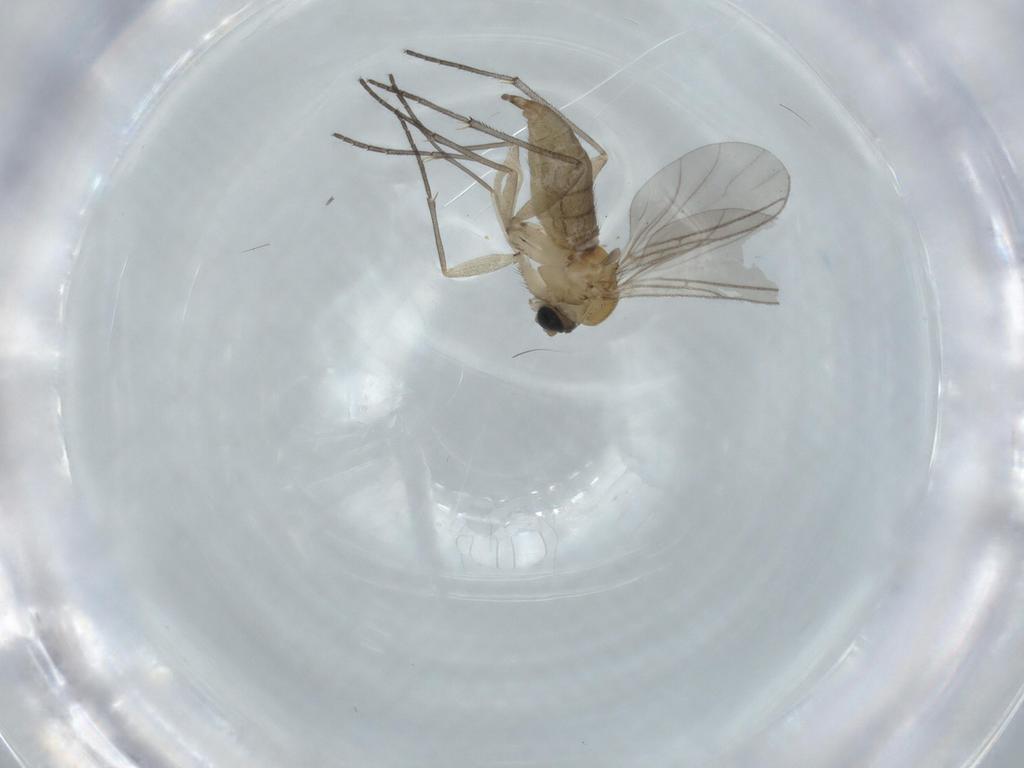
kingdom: Animalia
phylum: Arthropoda
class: Insecta
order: Diptera
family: Sciaridae
